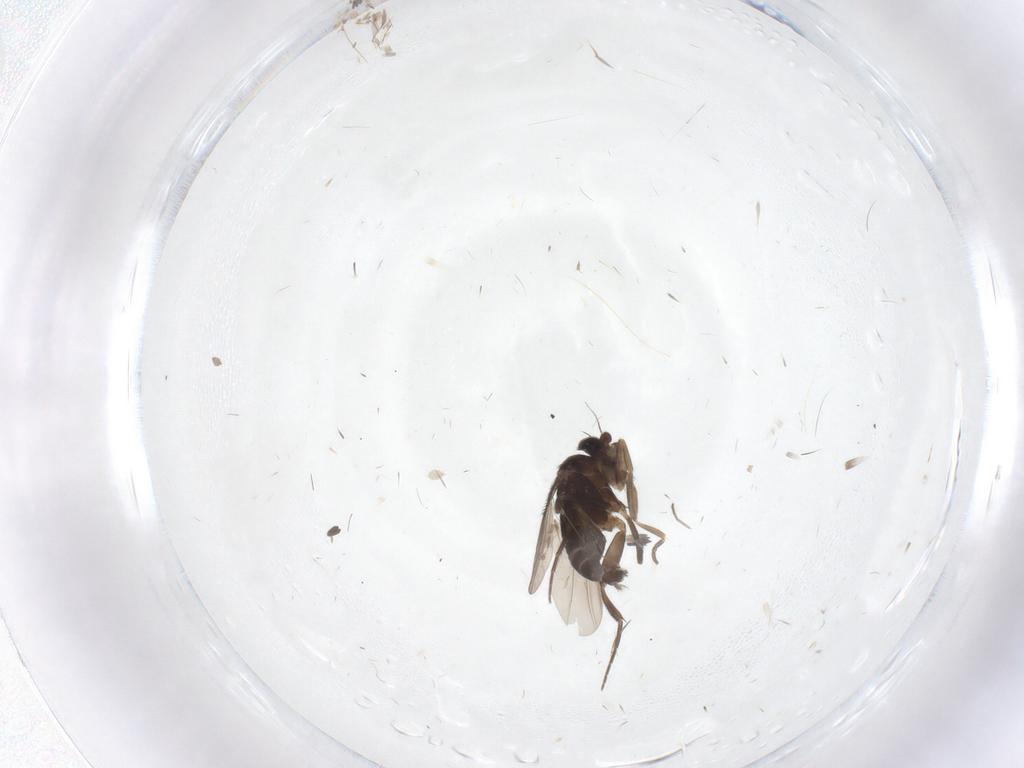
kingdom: Animalia
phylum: Arthropoda
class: Insecta
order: Diptera
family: Phoridae
